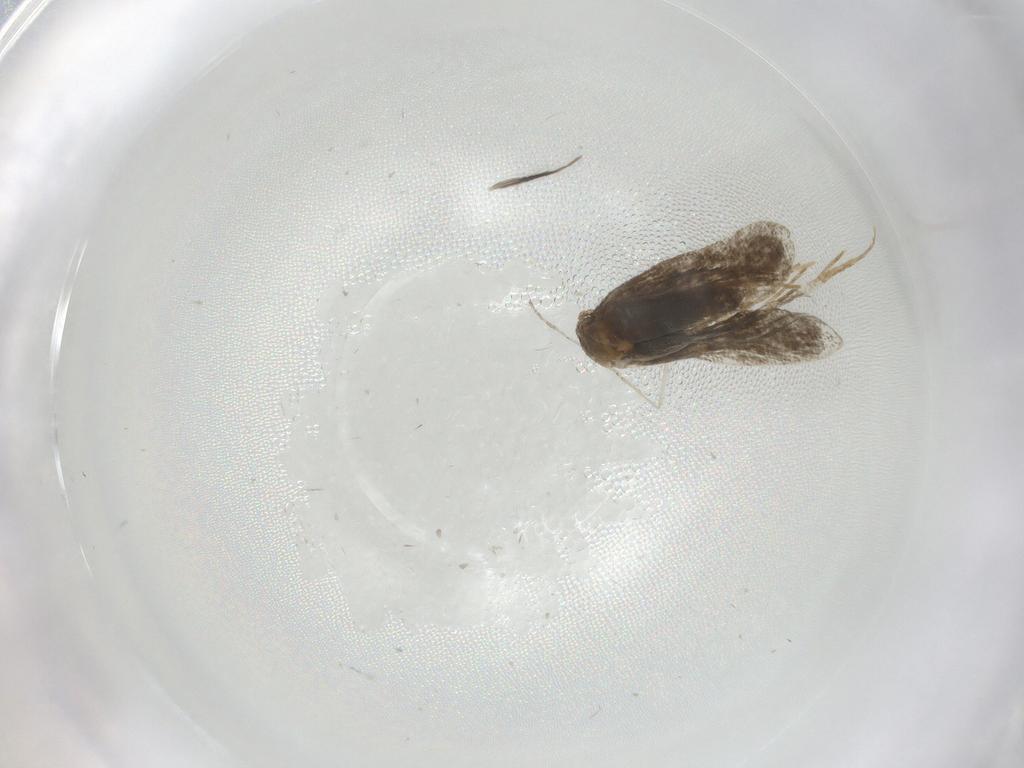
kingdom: Animalia
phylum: Arthropoda
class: Insecta
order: Lepidoptera
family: Psychidae
